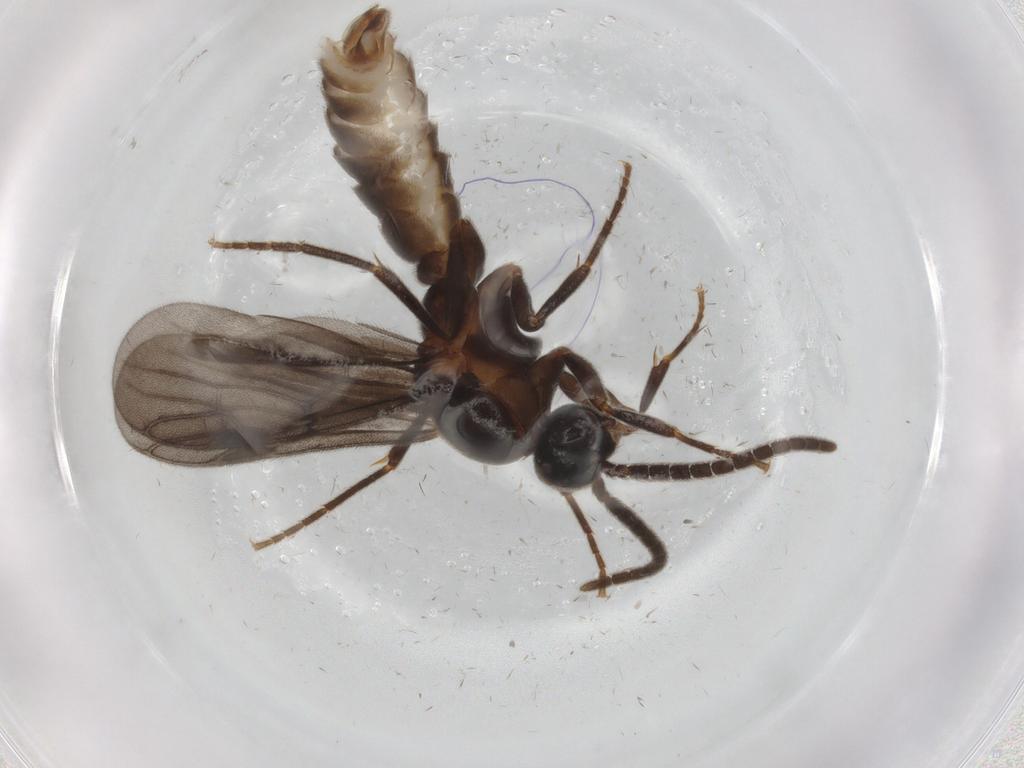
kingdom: Animalia
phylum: Arthropoda
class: Insecta
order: Hymenoptera
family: Formicidae
